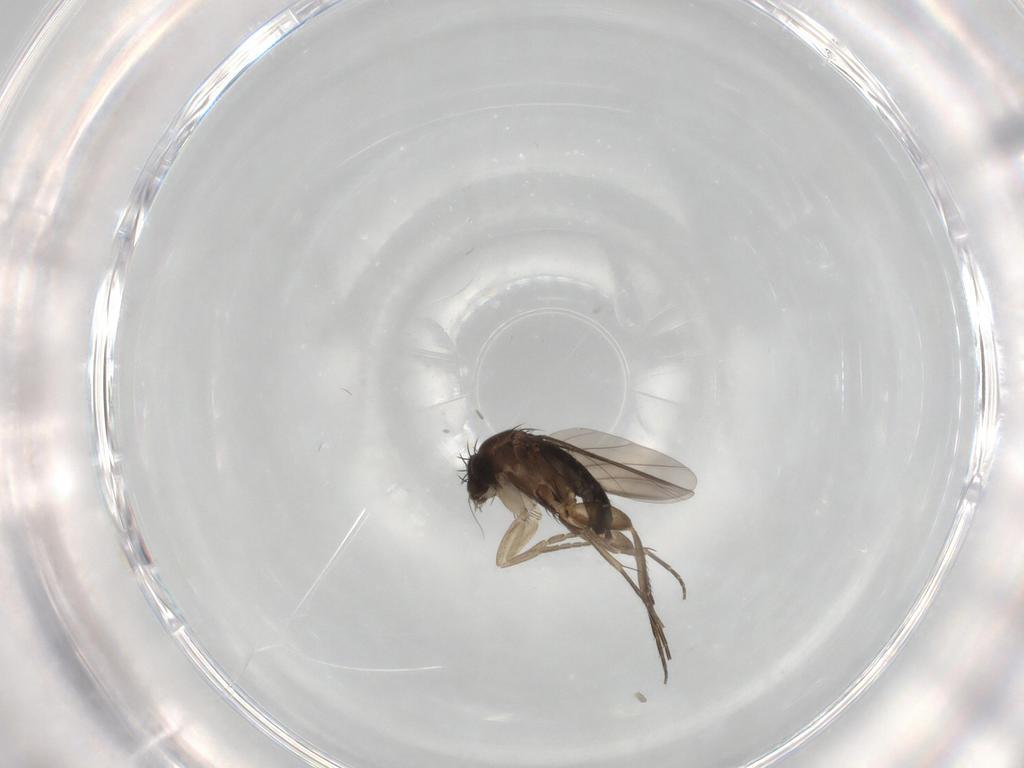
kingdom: Animalia
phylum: Arthropoda
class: Insecta
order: Diptera
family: Phoridae
